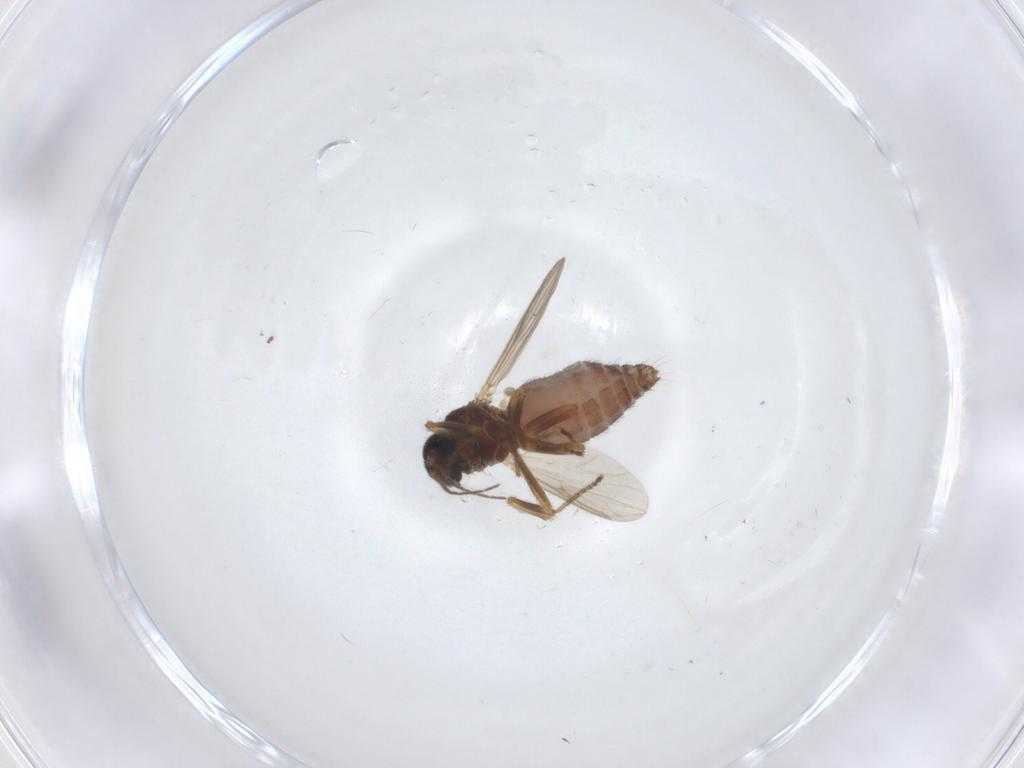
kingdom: Animalia
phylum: Arthropoda
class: Insecta
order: Diptera
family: Ceratopogonidae
